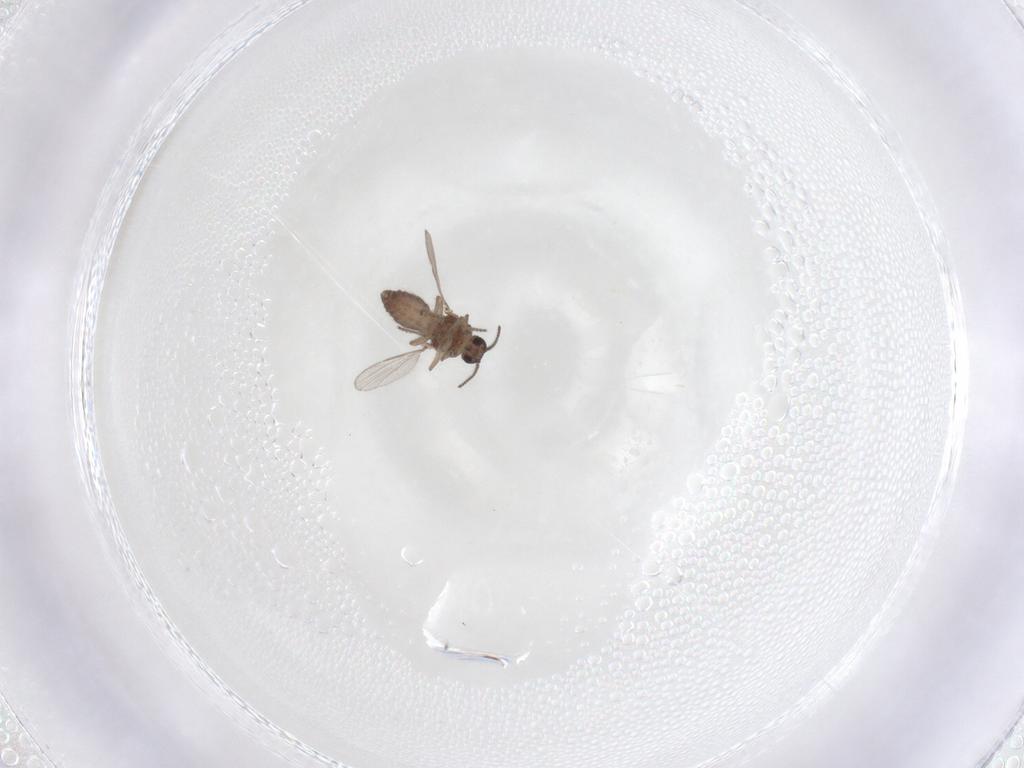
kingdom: Animalia
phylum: Arthropoda
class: Insecta
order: Diptera
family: Ceratopogonidae
